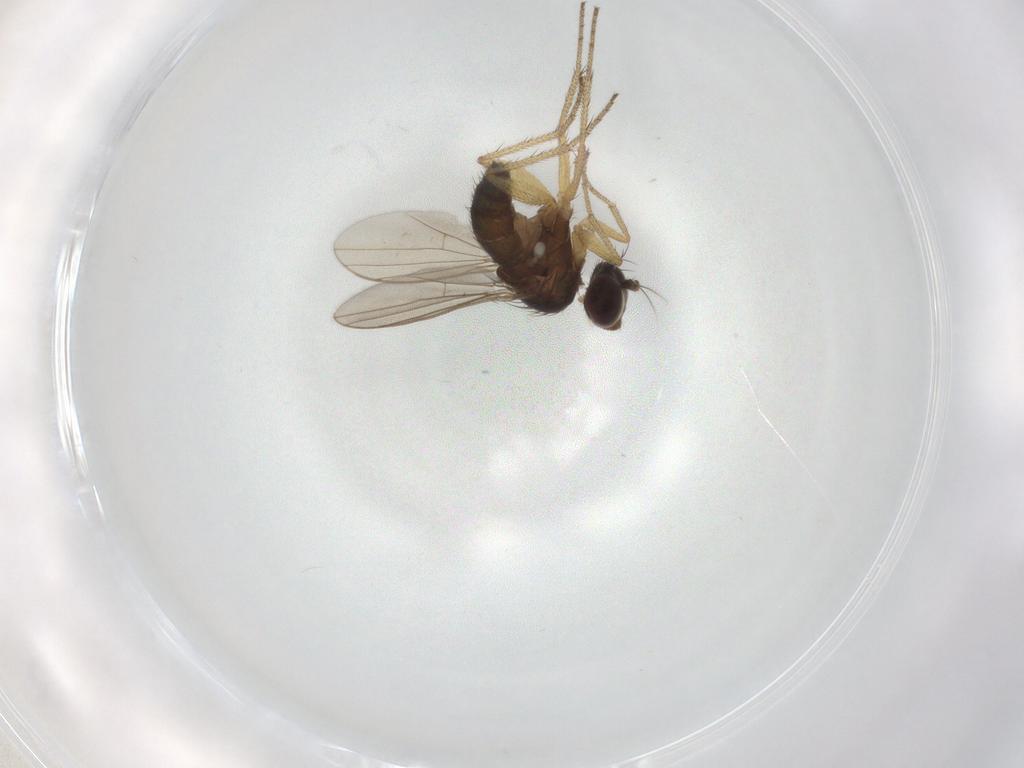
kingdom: Animalia
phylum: Arthropoda
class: Insecta
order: Diptera
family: Dolichopodidae
